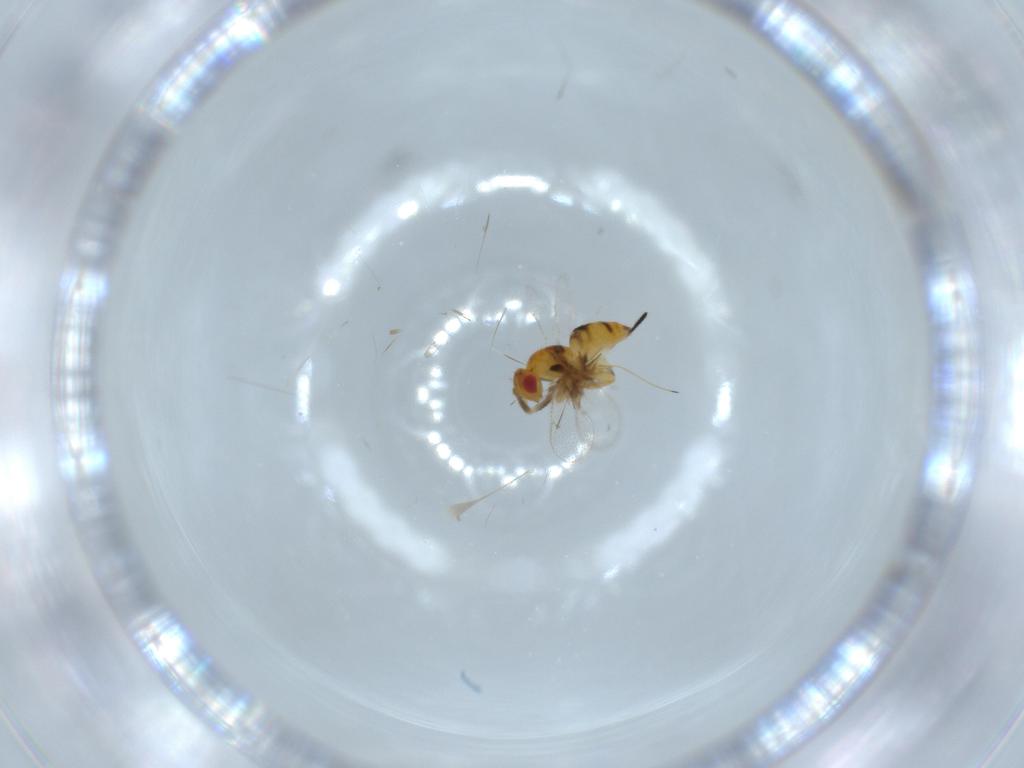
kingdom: Animalia
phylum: Arthropoda
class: Insecta
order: Hymenoptera
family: Torymidae
